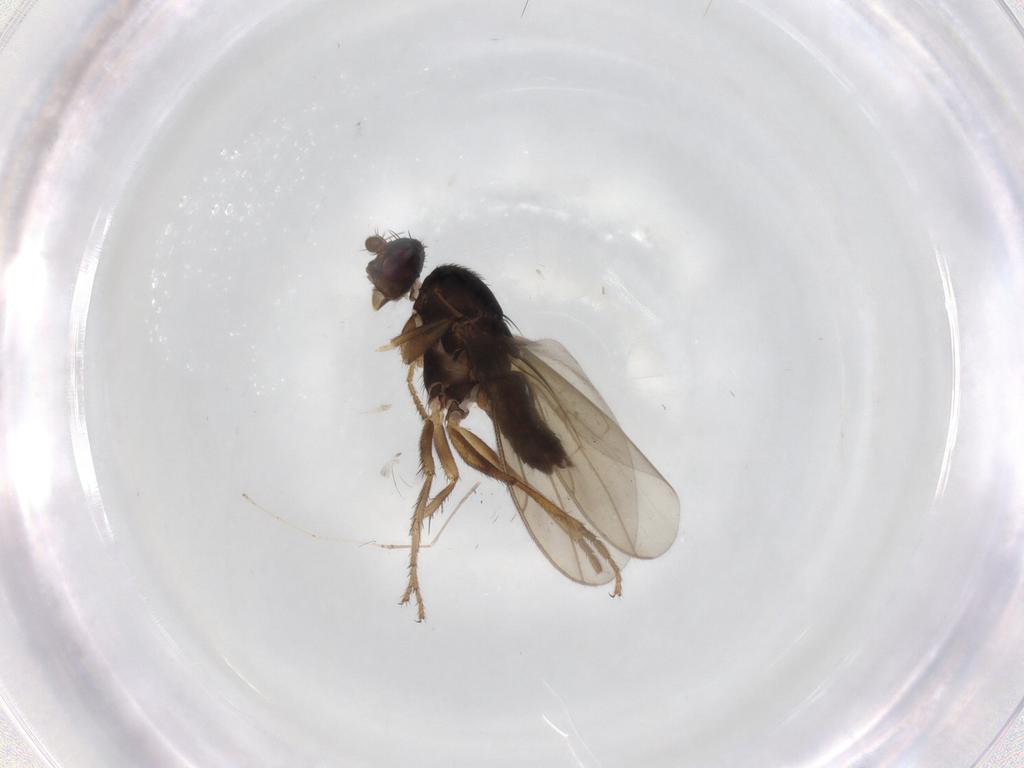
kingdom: Animalia
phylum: Arthropoda
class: Insecta
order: Diptera
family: Sphaeroceridae
